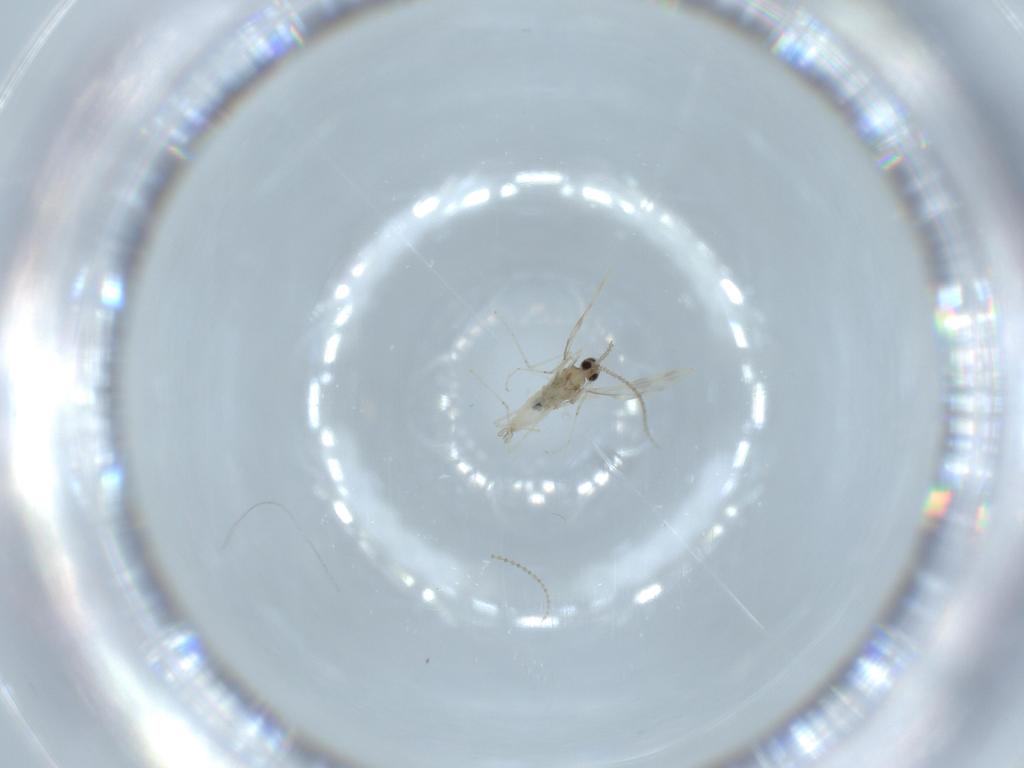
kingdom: Animalia
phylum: Arthropoda
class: Insecta
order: Diptera
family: Cecidomyiidae
